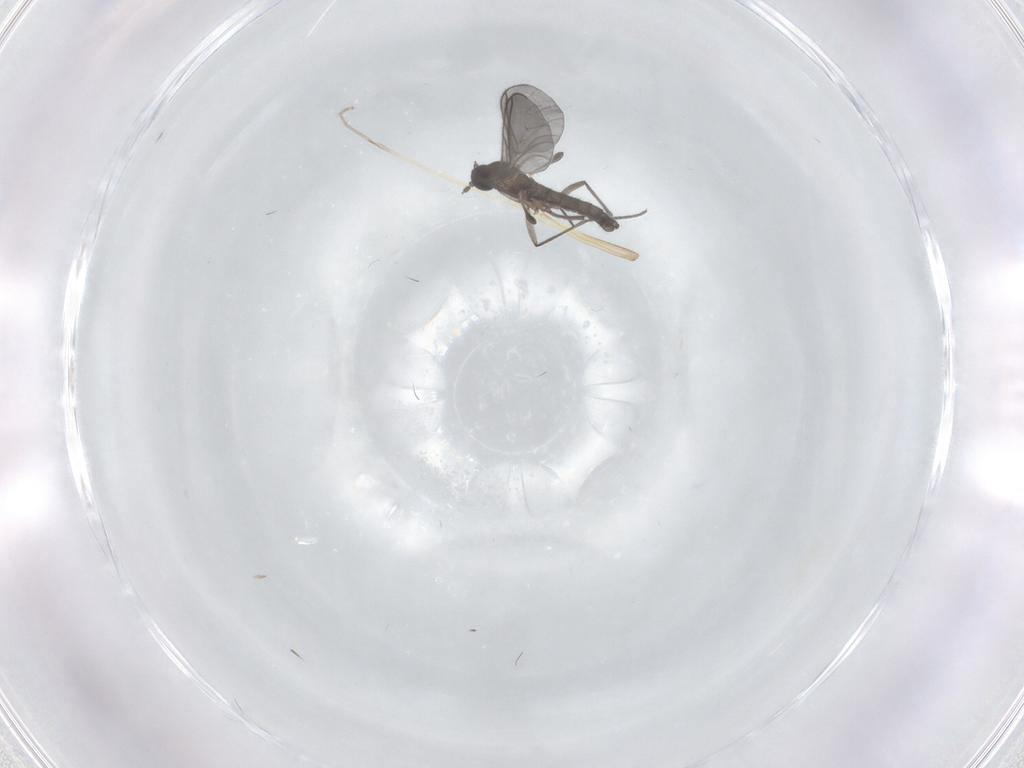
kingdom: Animalia
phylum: Arthropoda
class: Insecta
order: Diptera
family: Limoniidae
